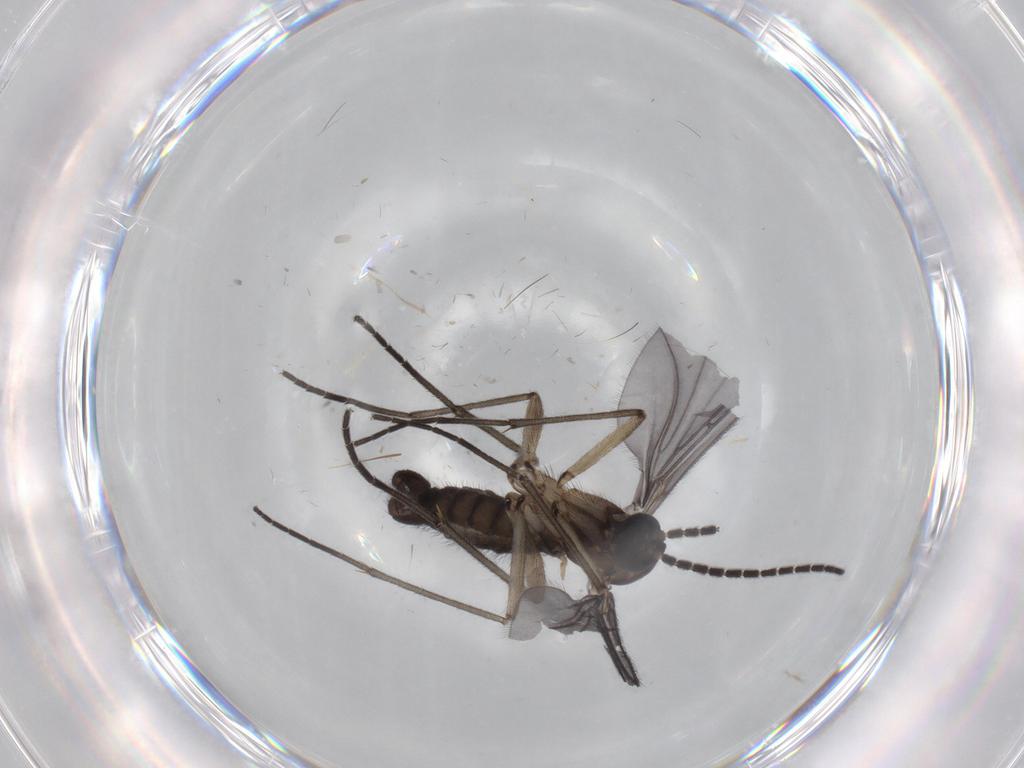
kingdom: Animalia
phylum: Arthropoda
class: Insecta
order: Diptera
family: Sciaridae
